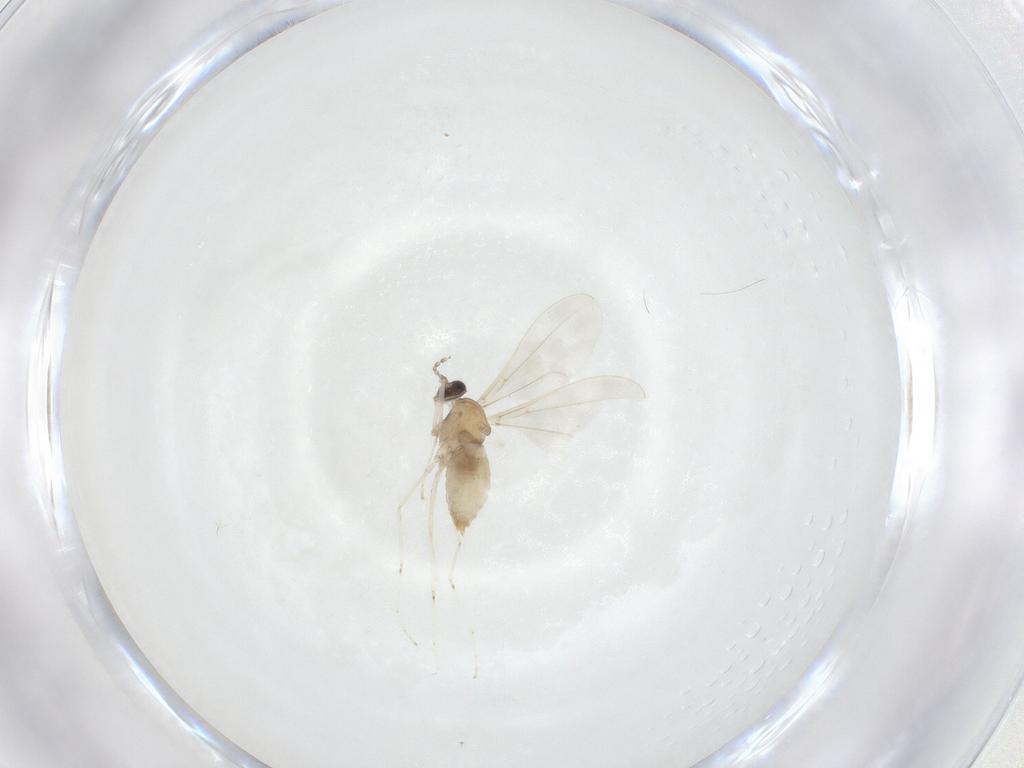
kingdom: Animalia
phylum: Arthropoda
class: Insecta
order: Diptera
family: Cecidomyiidae
